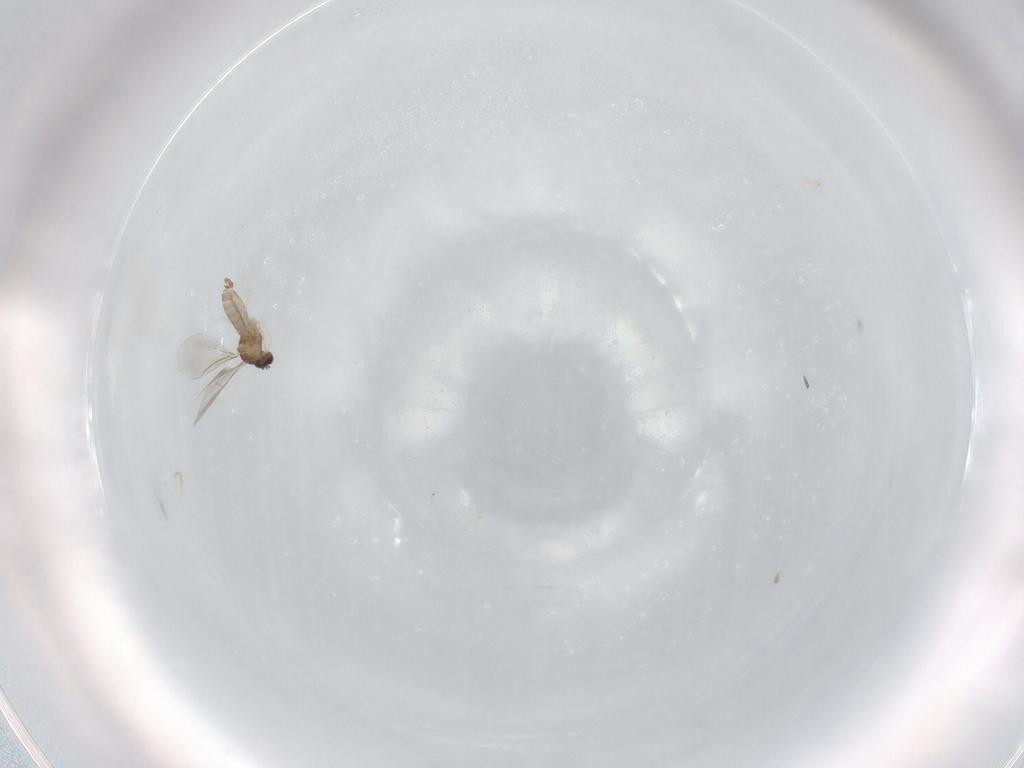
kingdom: Animalia
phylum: Arthropoda
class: Insecta
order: Diptera
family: Cecidomyiidae
